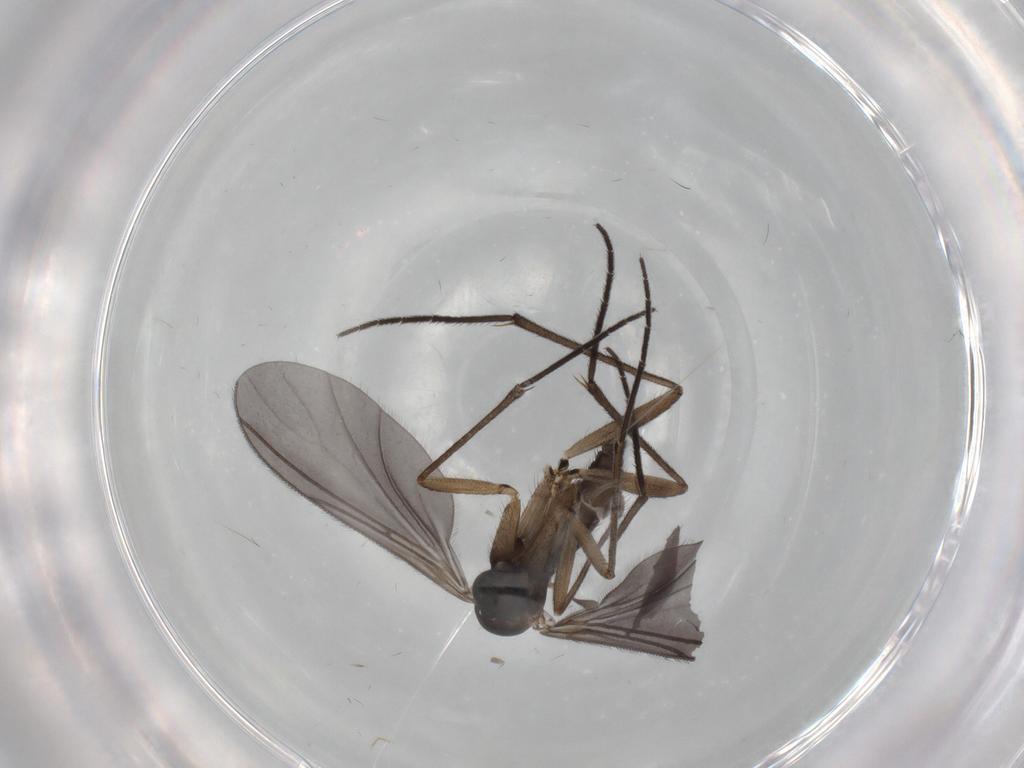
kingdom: Animalia
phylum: Arthropoda
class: Insecta
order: Diptera
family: Sciaridae
